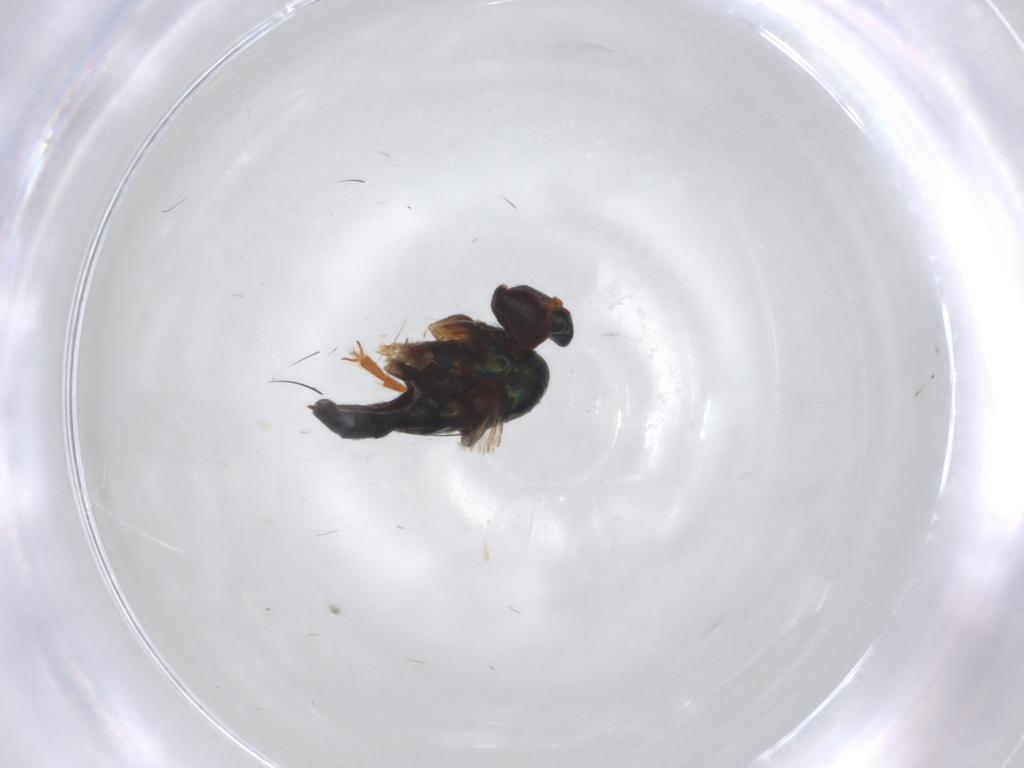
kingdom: Animalia
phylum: Arthropoda
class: Insecta
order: Diptera
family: Dolichopodidae
